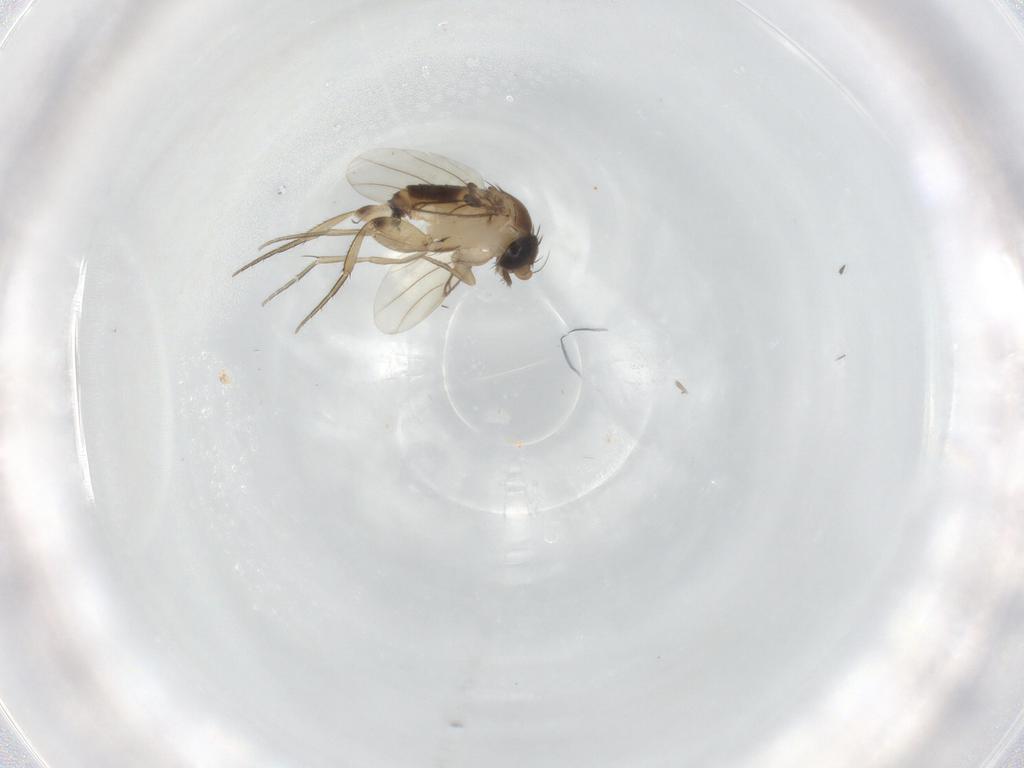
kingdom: Animalia
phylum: Arthropoda
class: Insecta
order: Diptera
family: Phoridae
